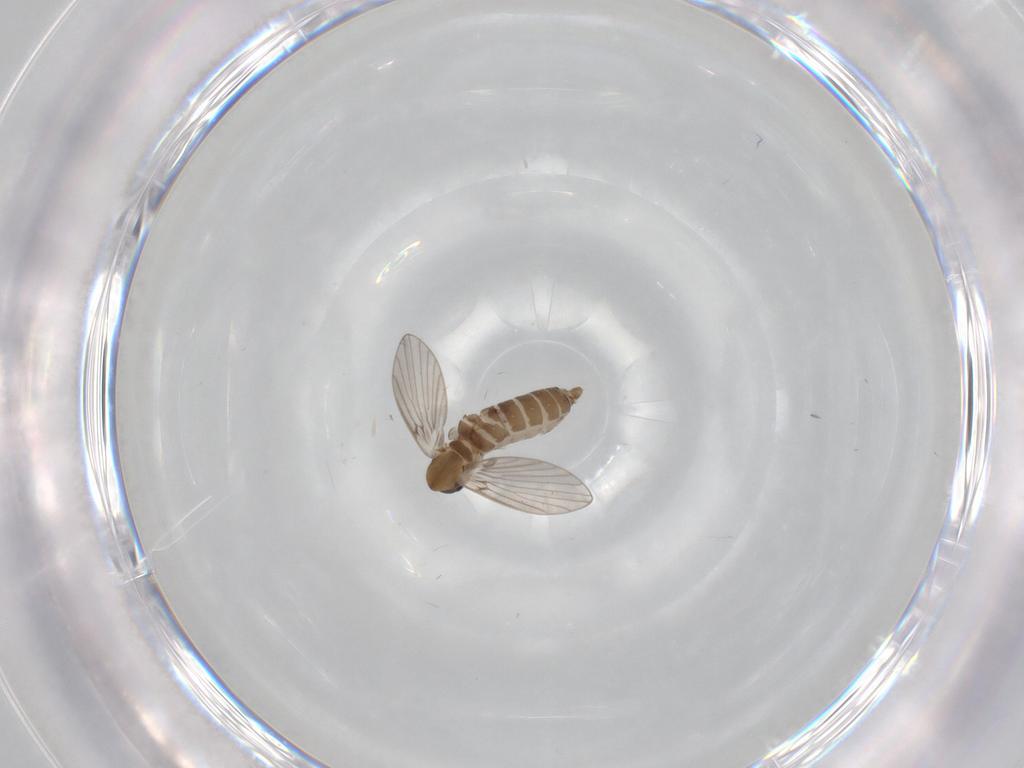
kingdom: Animalia
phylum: Arthropoda
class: Insecta
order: Diptera
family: Psychodidae
